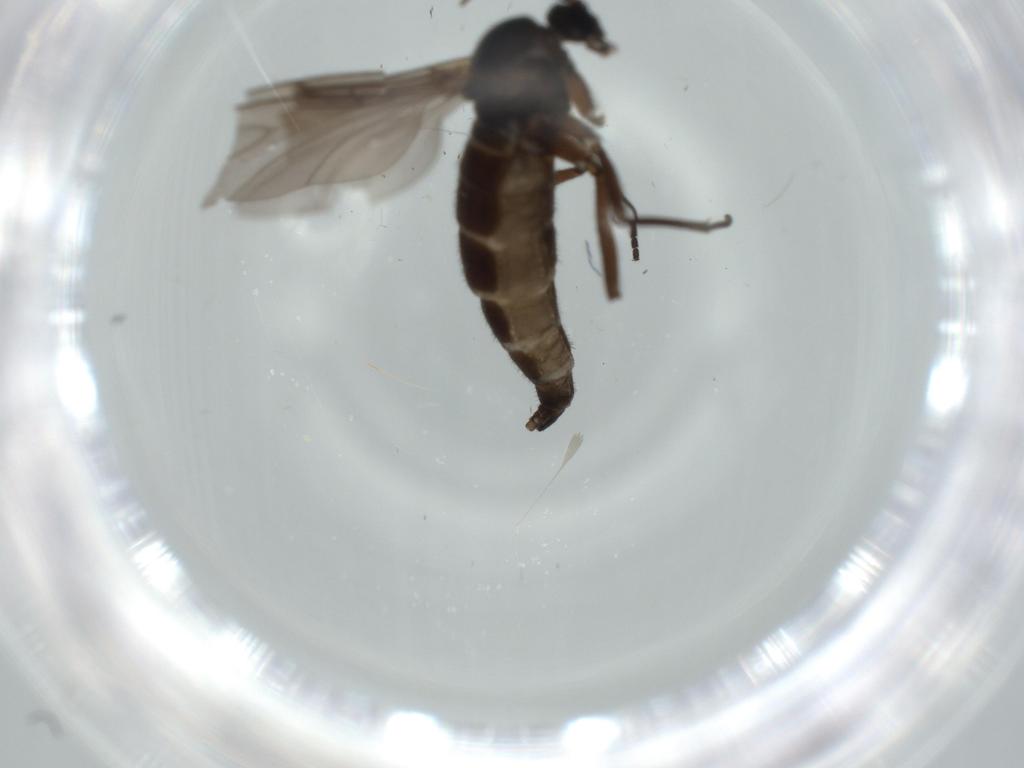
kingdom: Animalia
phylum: Arthropoda
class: Insecta
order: Diptera
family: Sciaridae
